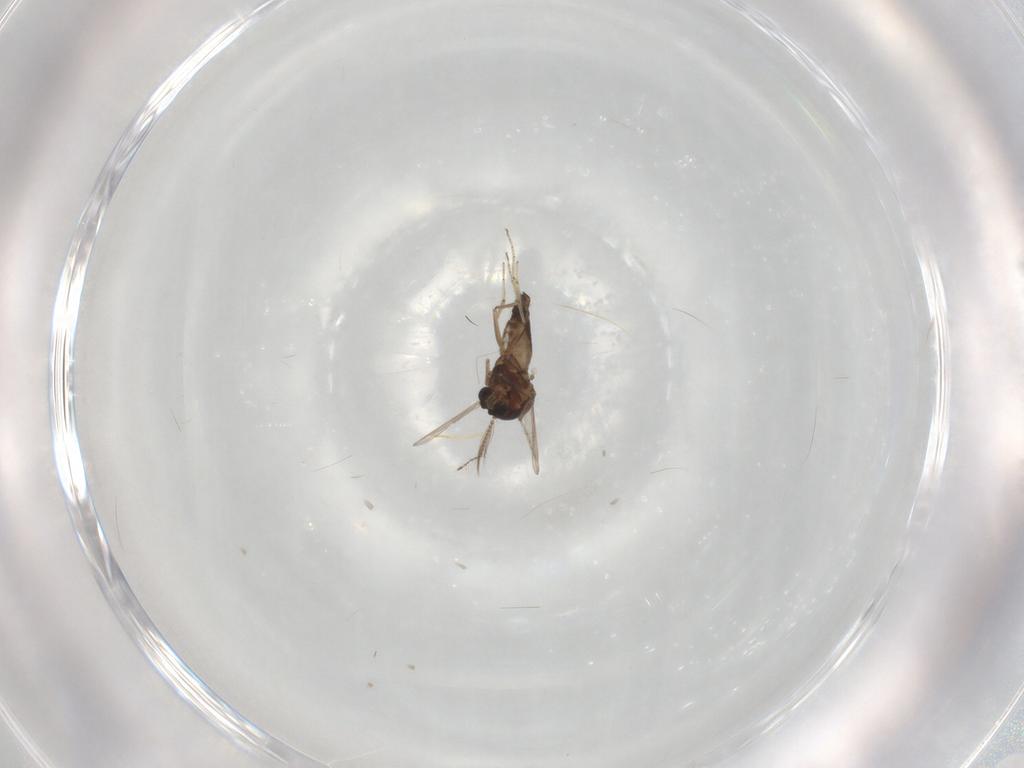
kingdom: Animalia
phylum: Arthropoda
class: Insecta
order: Diptera
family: Ceratopogonidae
